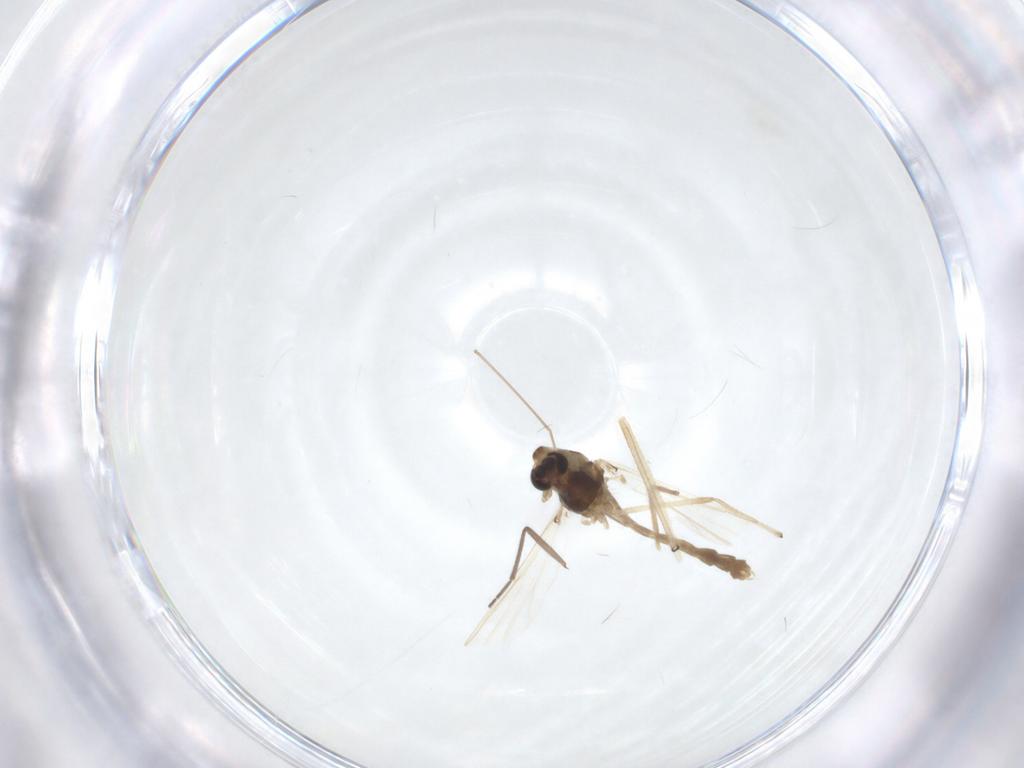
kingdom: Animalia
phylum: Arthropoda
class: Insecta
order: Diptera
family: Chironomidae
